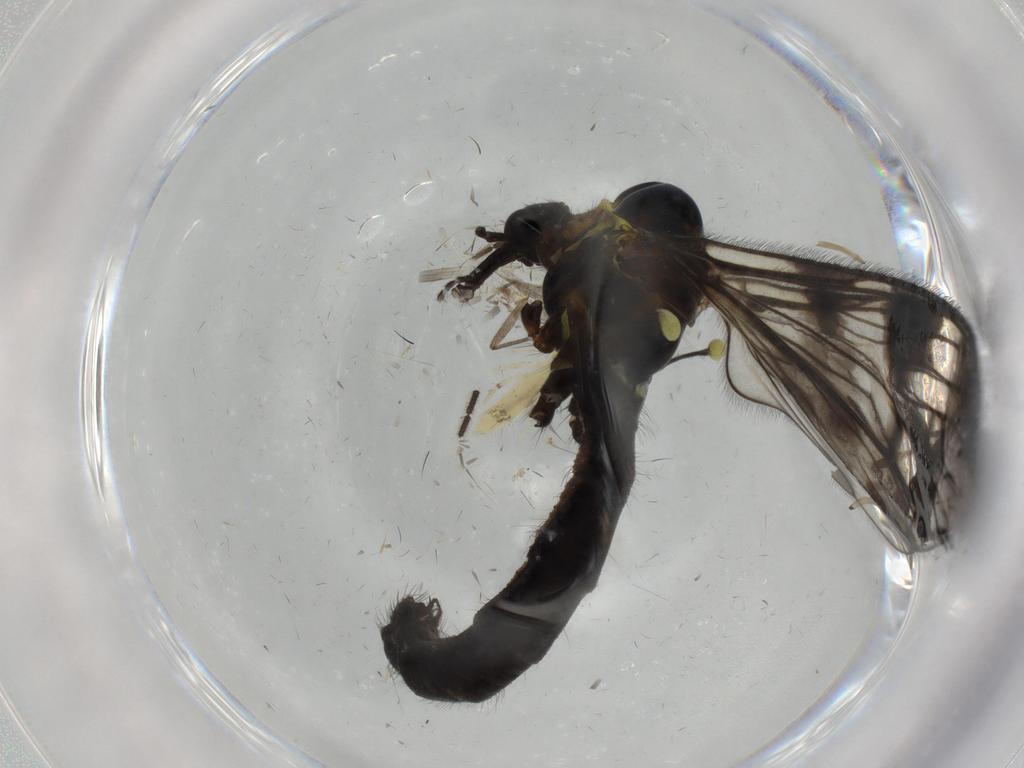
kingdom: Animalia
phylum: Arthropoda
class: Insecta
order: Diptera
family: Limoniidae
